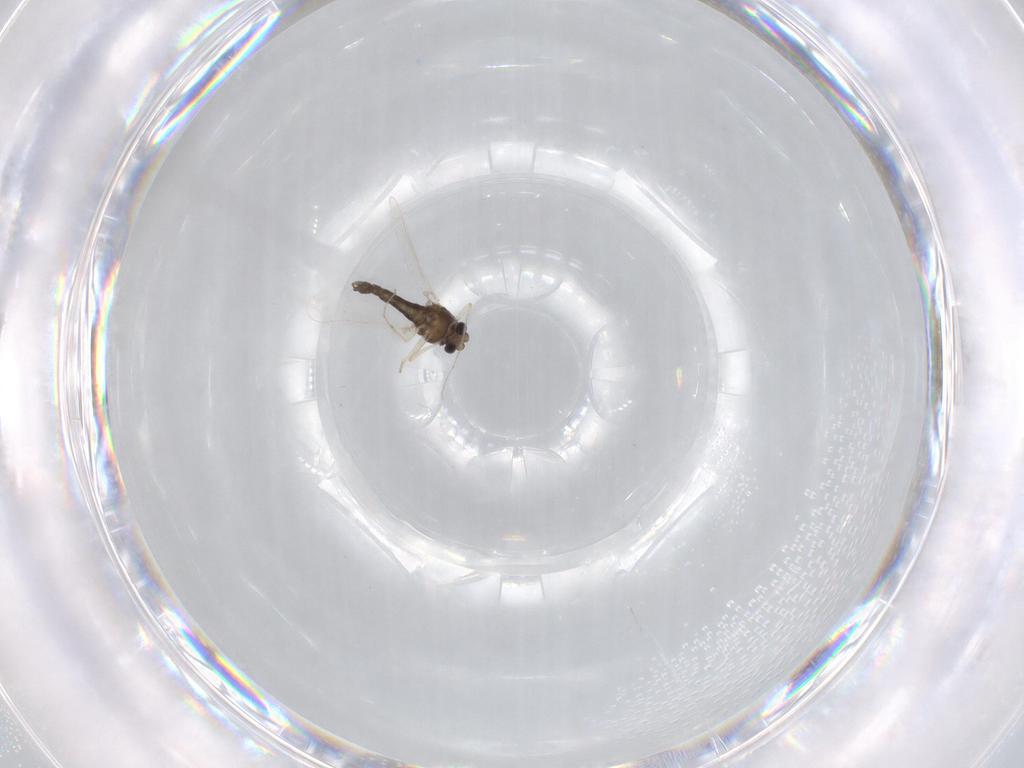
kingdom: Animalia
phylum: Arthropoda
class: Insecta
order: Diptera
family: Chironomidae
